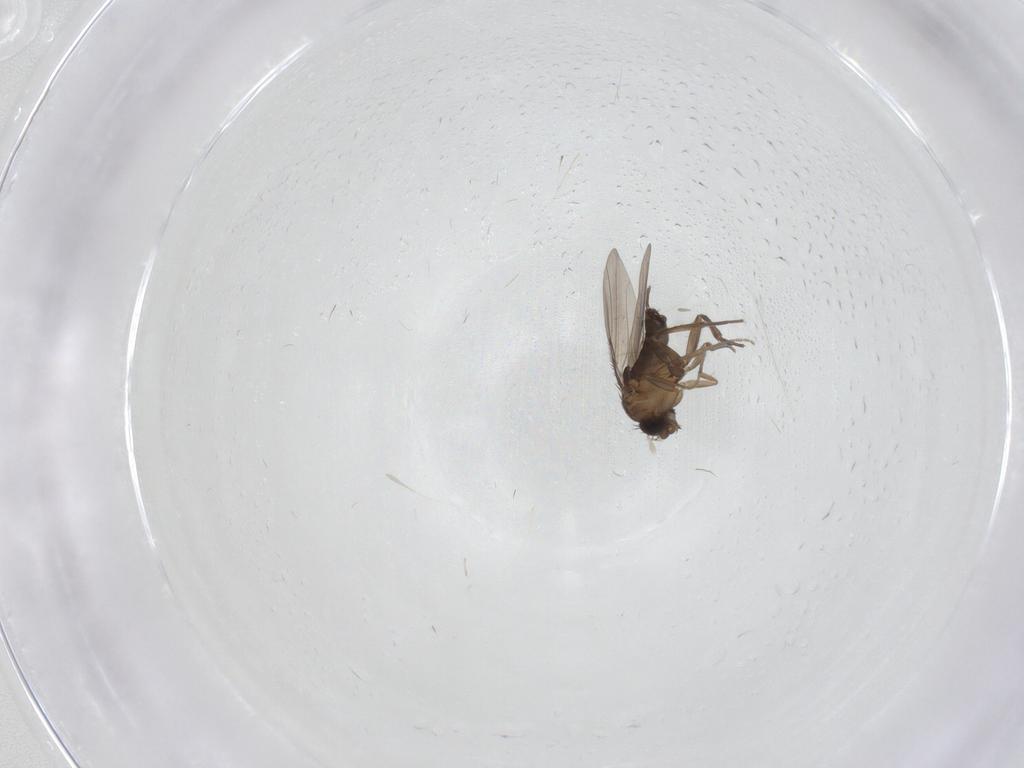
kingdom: Animalia
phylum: Arthropoda
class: Insecta
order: Diptera
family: Phoridae
